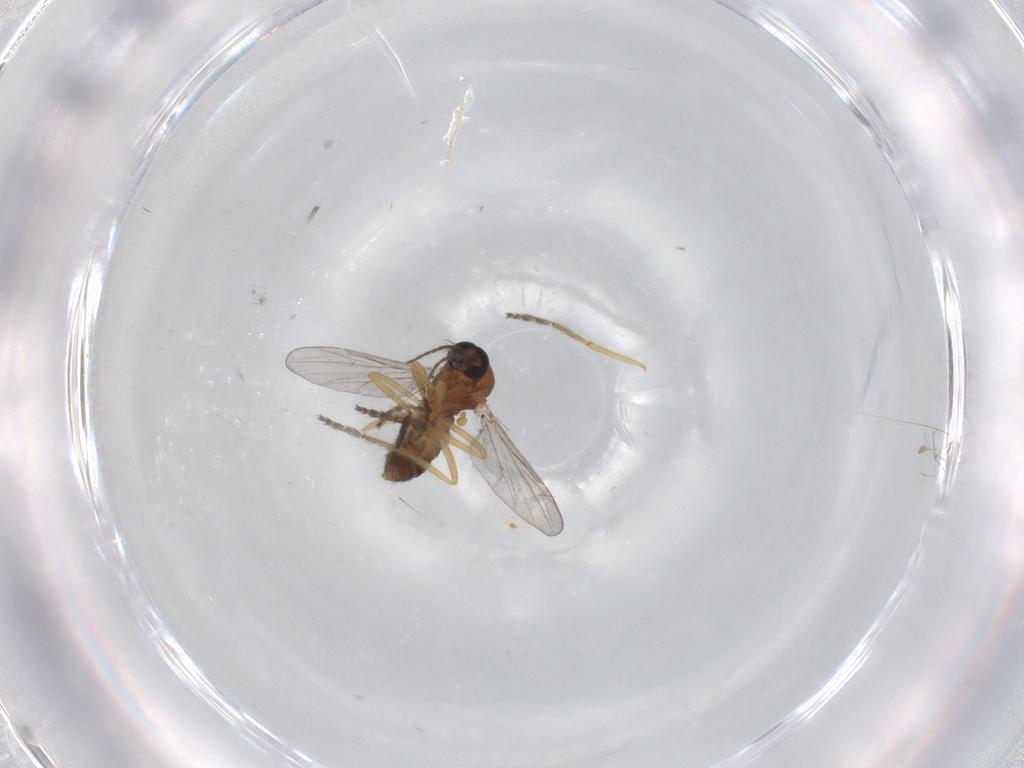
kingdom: Animalia
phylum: Arthropoda
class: Insecta
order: Diptera
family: Ceratopogonidae
